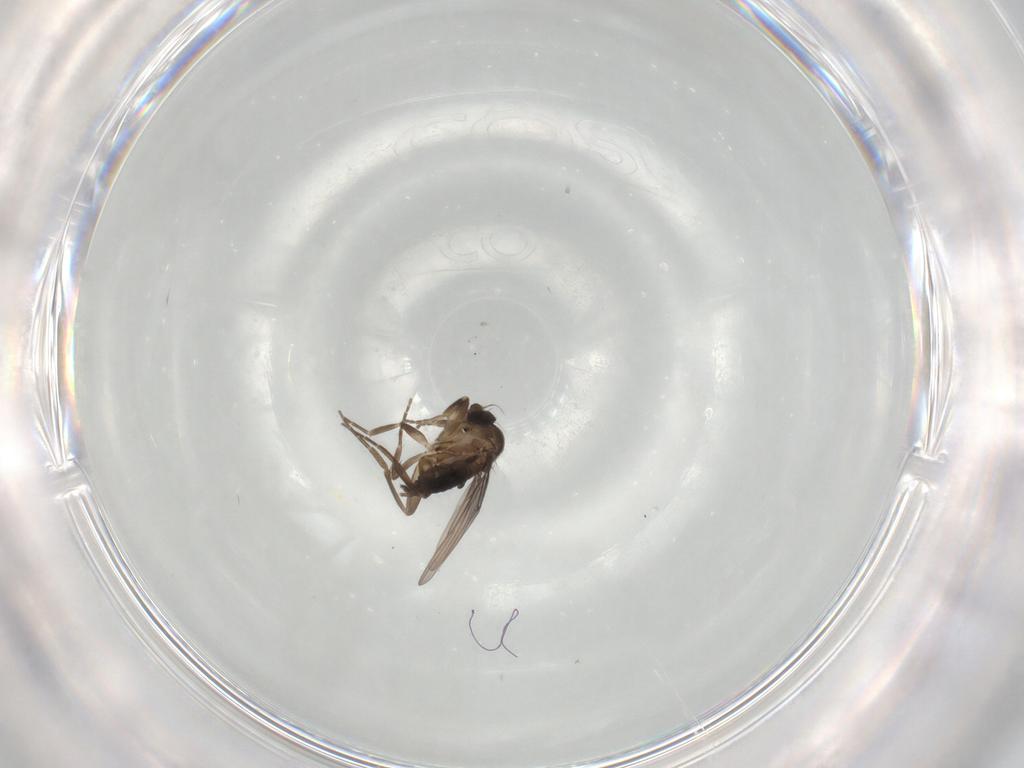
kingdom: Animalia
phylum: Arthropoda
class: Insecta
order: Diptera
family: Phoridae
